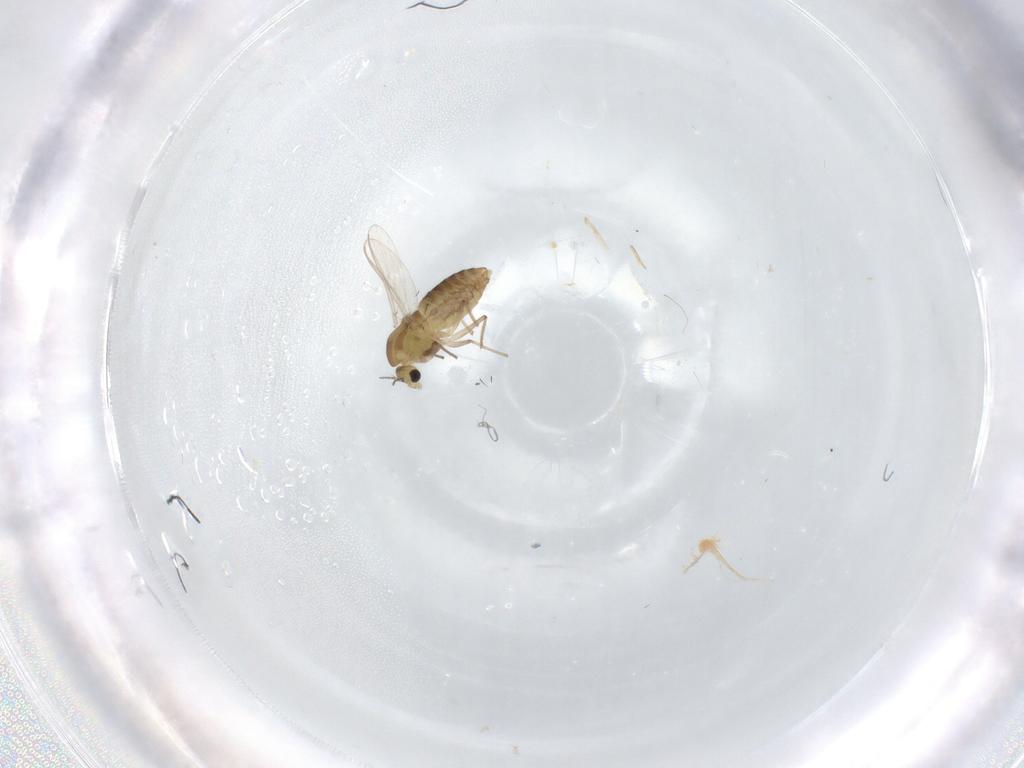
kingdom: Animalia
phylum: Arthropoda
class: Insecta
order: Diptera
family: Chironomidae
